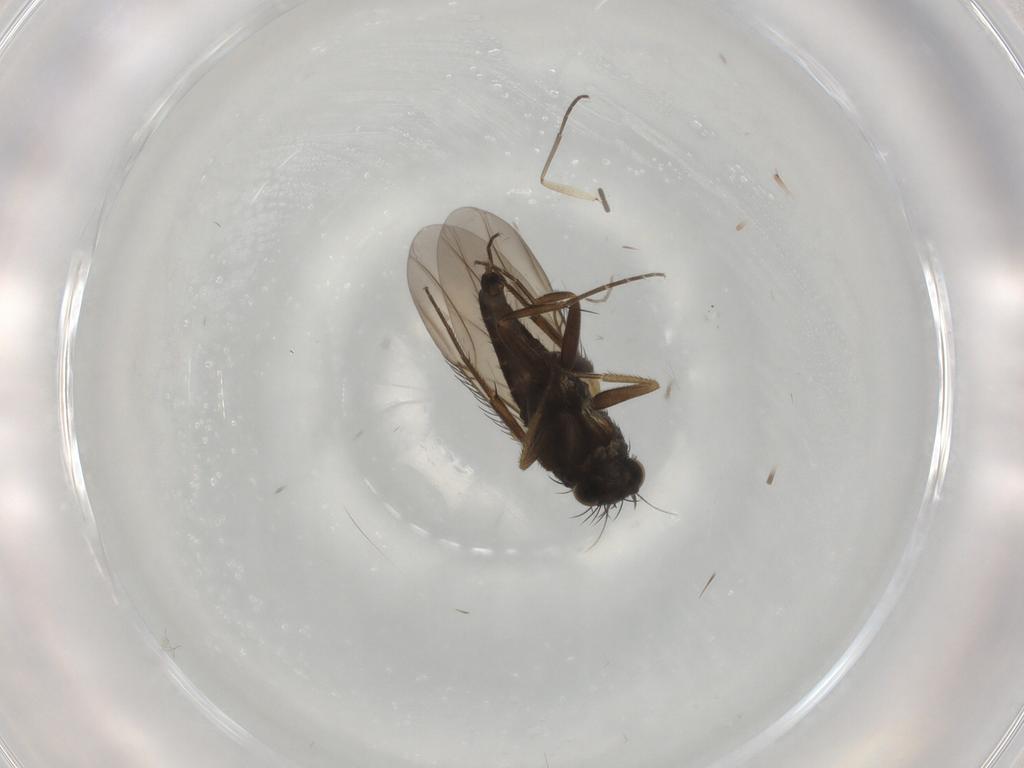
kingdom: Animalia
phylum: Arthropoda
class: Insecta
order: Diptera
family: Phoridae
